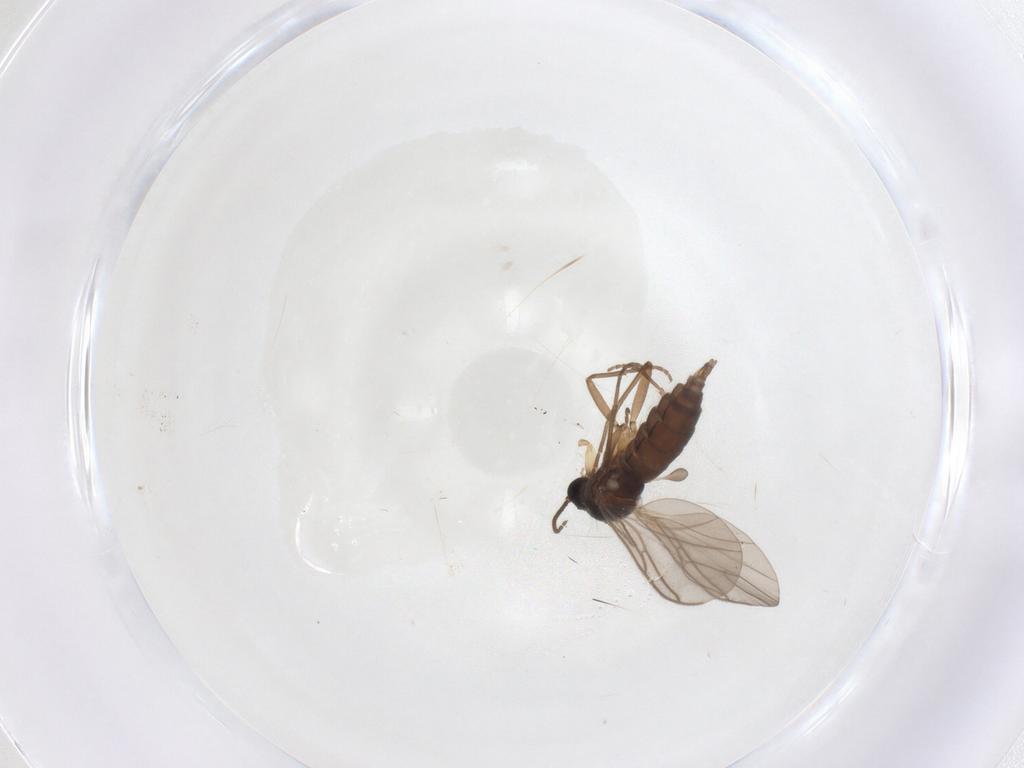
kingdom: Animalia
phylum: Arthropoda
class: Insecta
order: Diptera
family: Sciaridae
